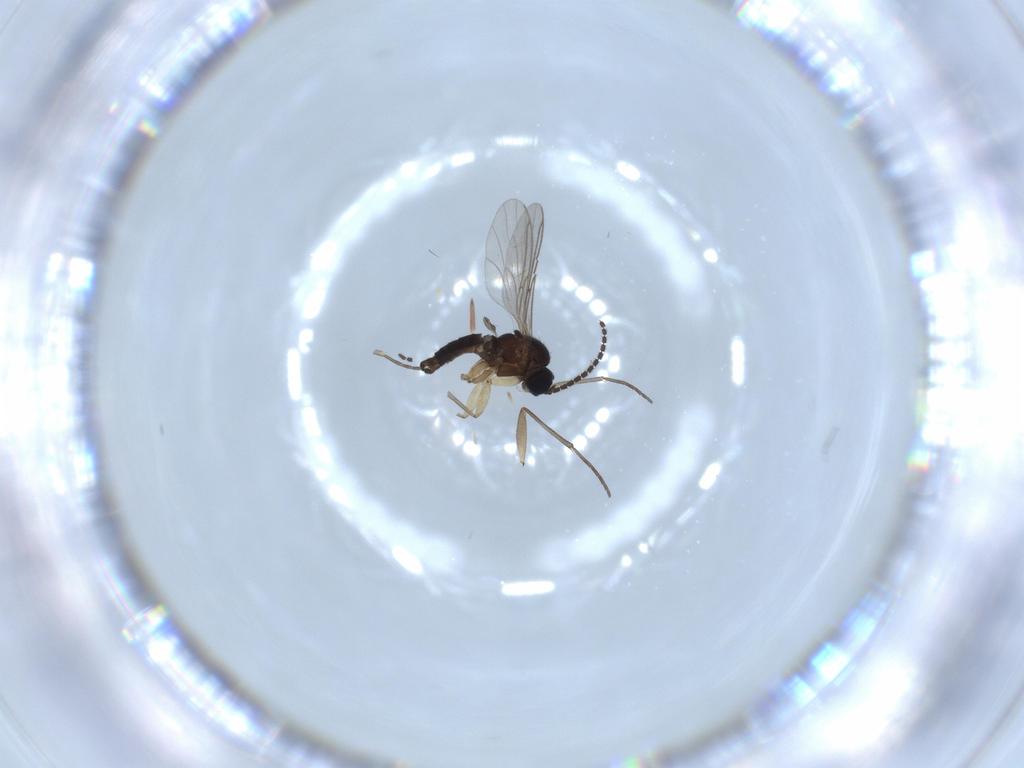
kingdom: Animalia
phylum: Arthropoda
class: Insecta
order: Diptera
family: Sciaridae
